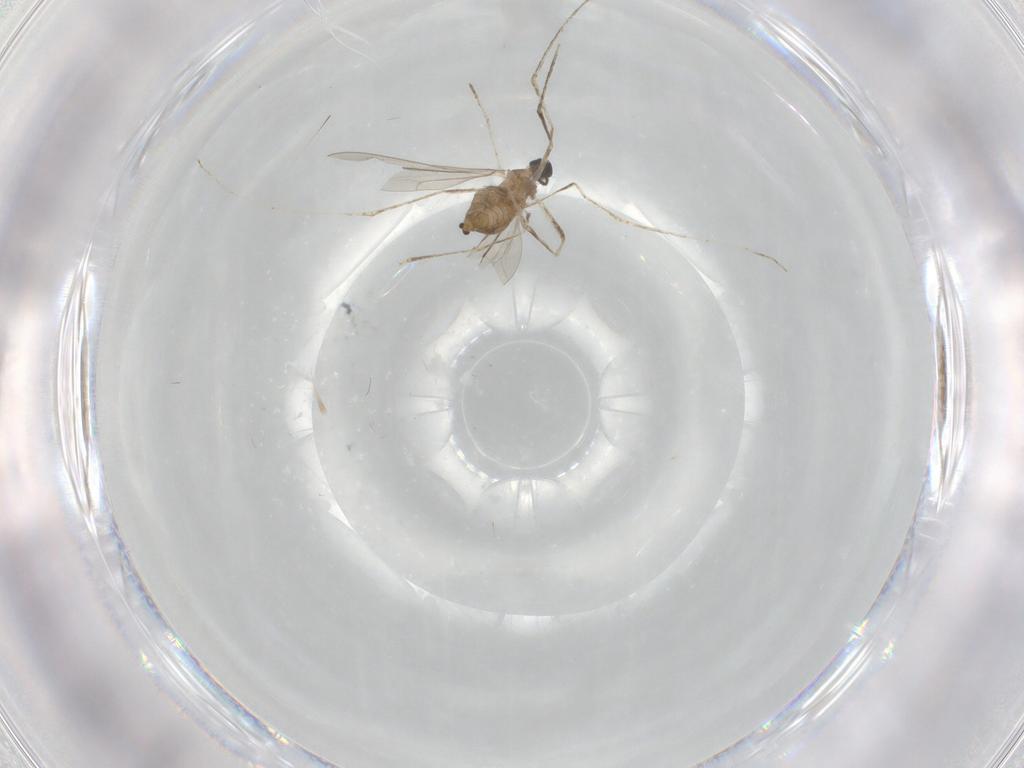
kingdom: Animalia
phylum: Arthropoda
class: Insecta
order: Diptera
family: Cecidomyiidae
